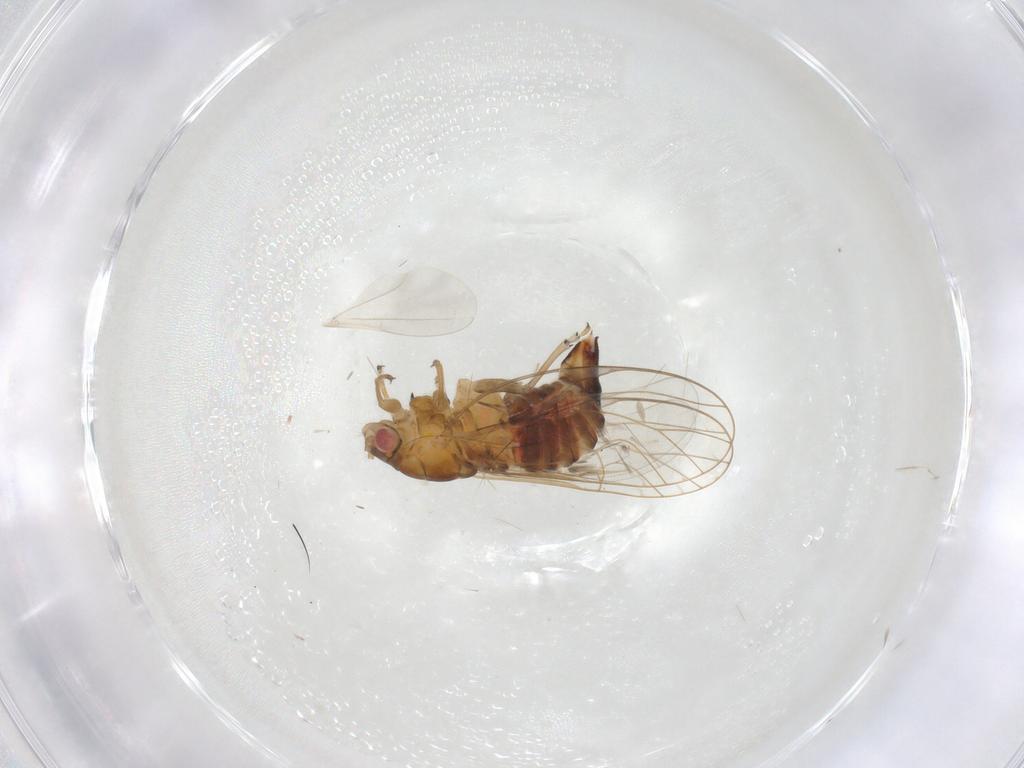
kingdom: Animalia
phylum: Arthropoda
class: Insecta
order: Hemiptera
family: Psyllidae
